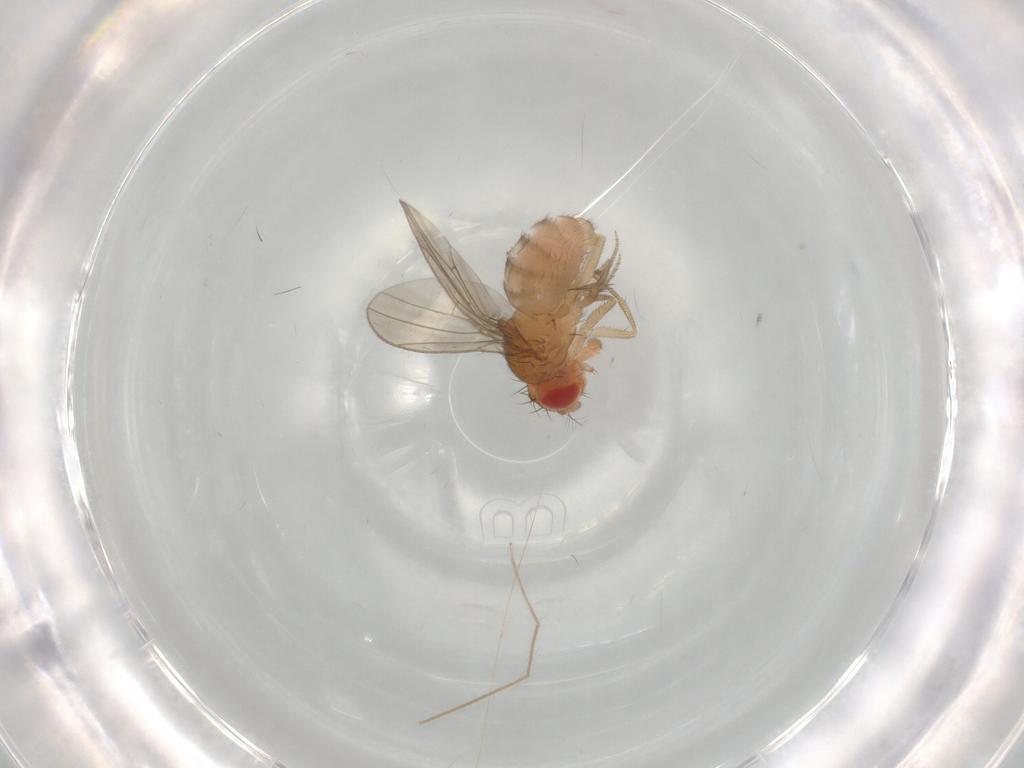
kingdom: Animalia
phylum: Arthropoda
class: Insecta
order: Diptera
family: Drosophilidae
